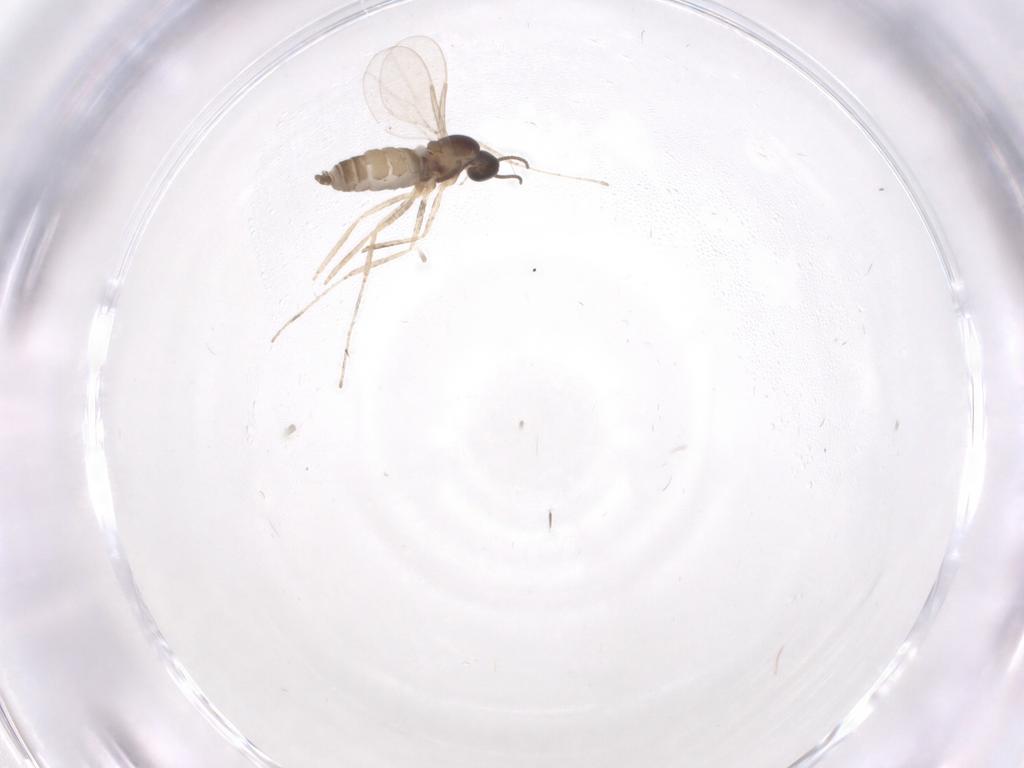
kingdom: Animalia
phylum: Arthropoda
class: Insecta
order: Diptera
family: Cecidomyiidae
